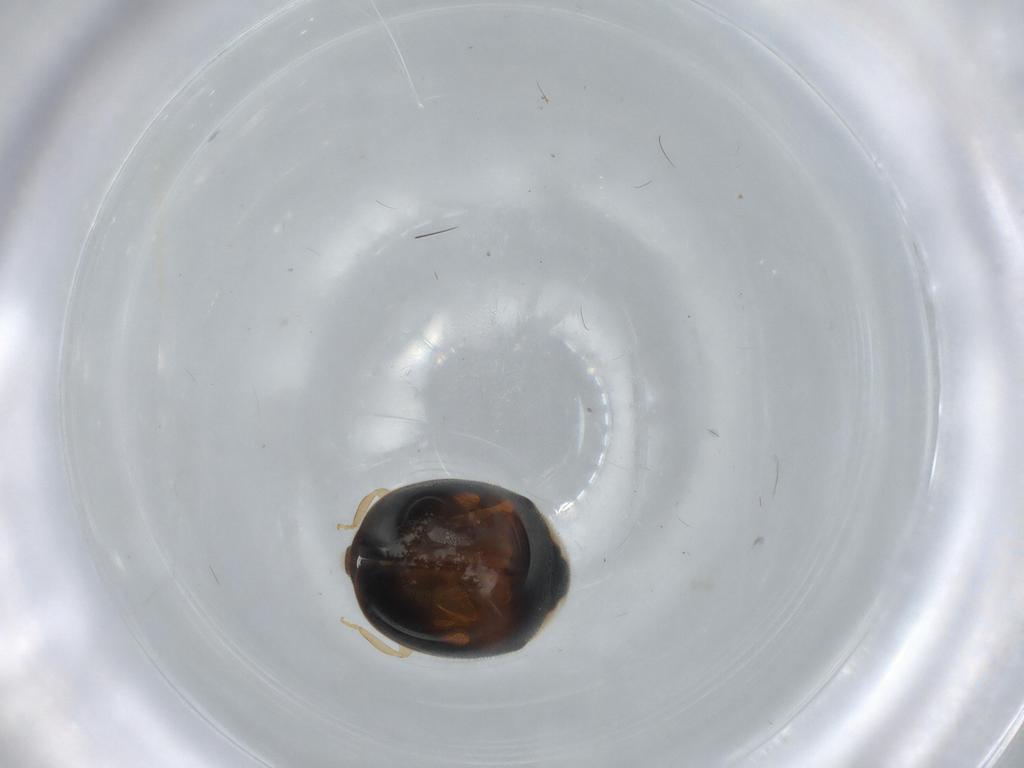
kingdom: Animalia
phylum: Arthropoda
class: Insecta
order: Coleoptera
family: Coccinellidae
